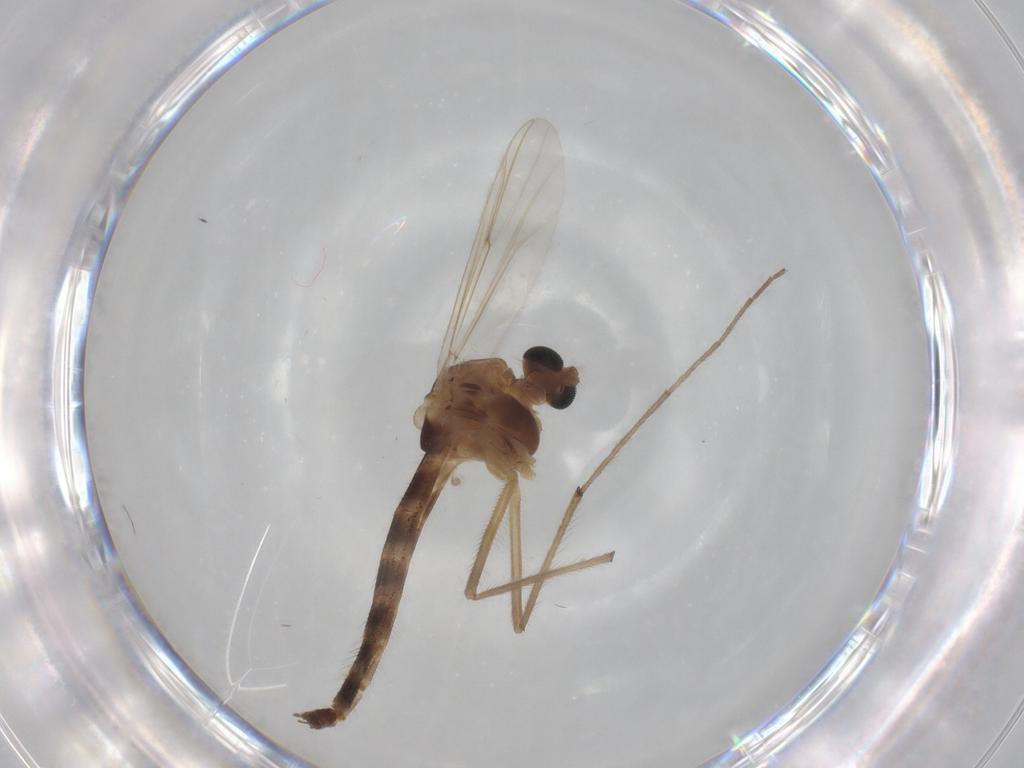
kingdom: Animalia
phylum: Arthropoda
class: Insecta
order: Diptera
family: Chironomidae
